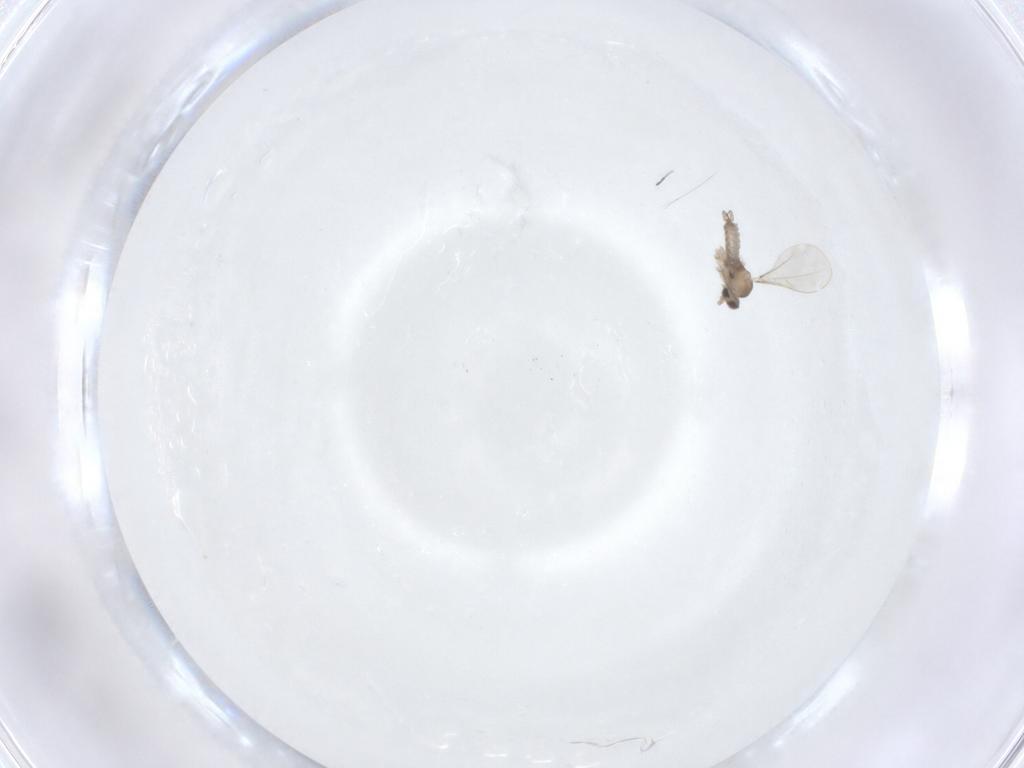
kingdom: Animalia
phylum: Arthropoda
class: Insecta
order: Diptera
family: Cecidomyiidae
